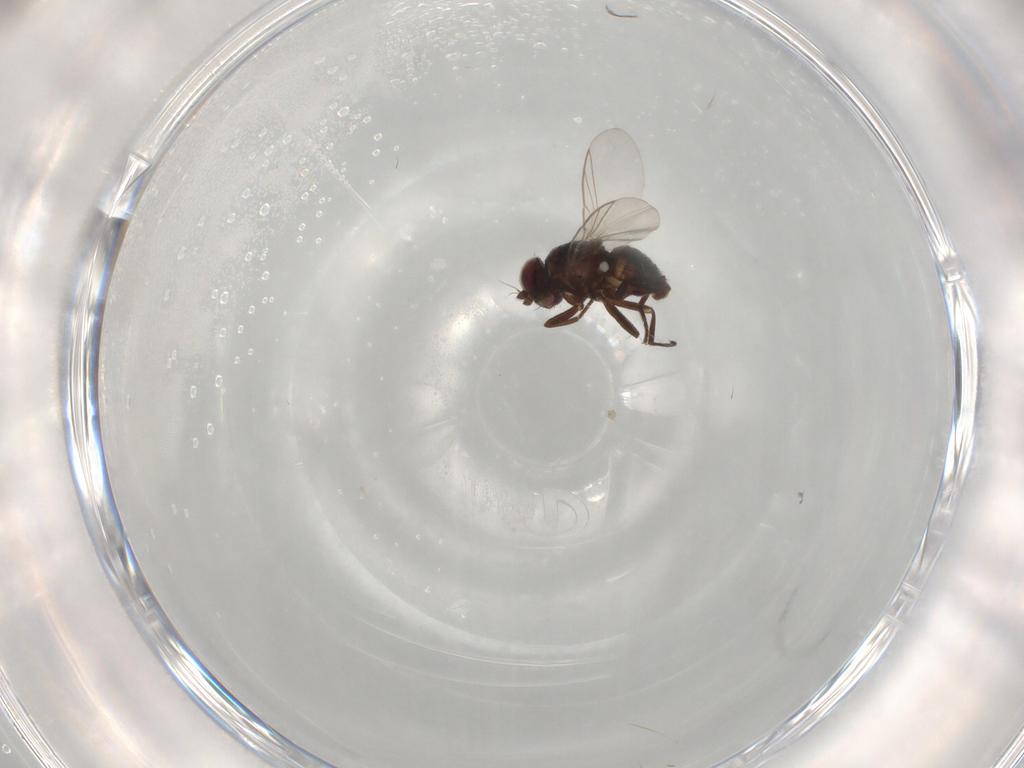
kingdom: Animalia
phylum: Arthropoda
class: Insecta
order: Diptera
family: Agromyzidae
